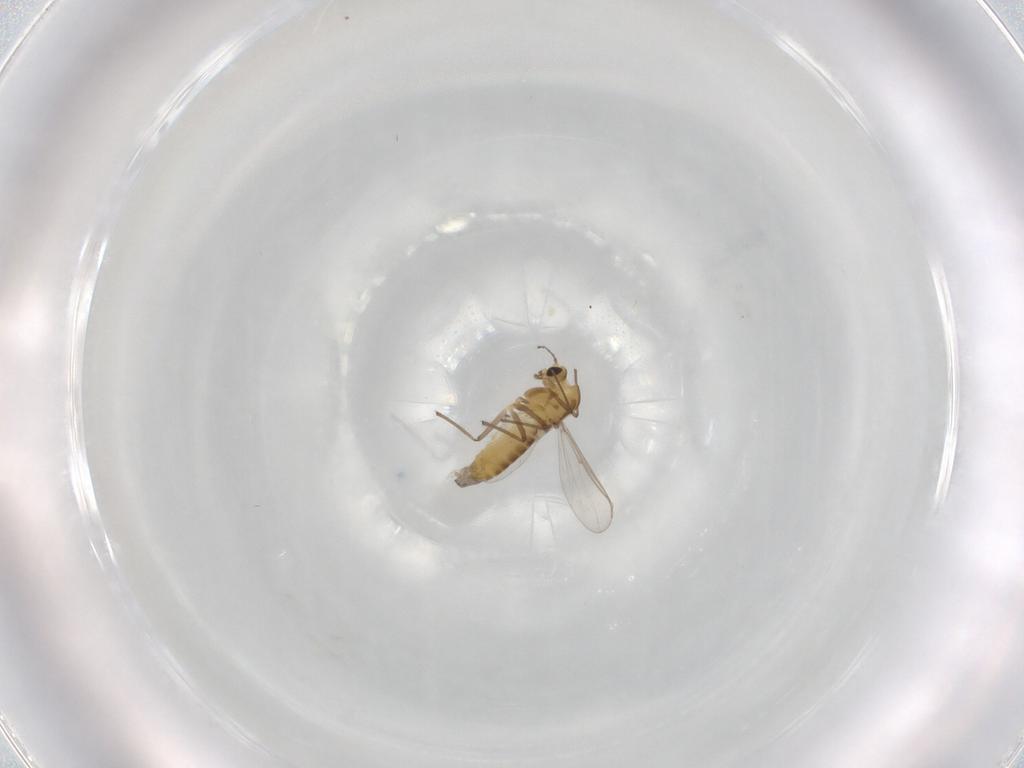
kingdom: Animalia
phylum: Arthropoda
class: Insecta
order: Diptera
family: Chironomidae
